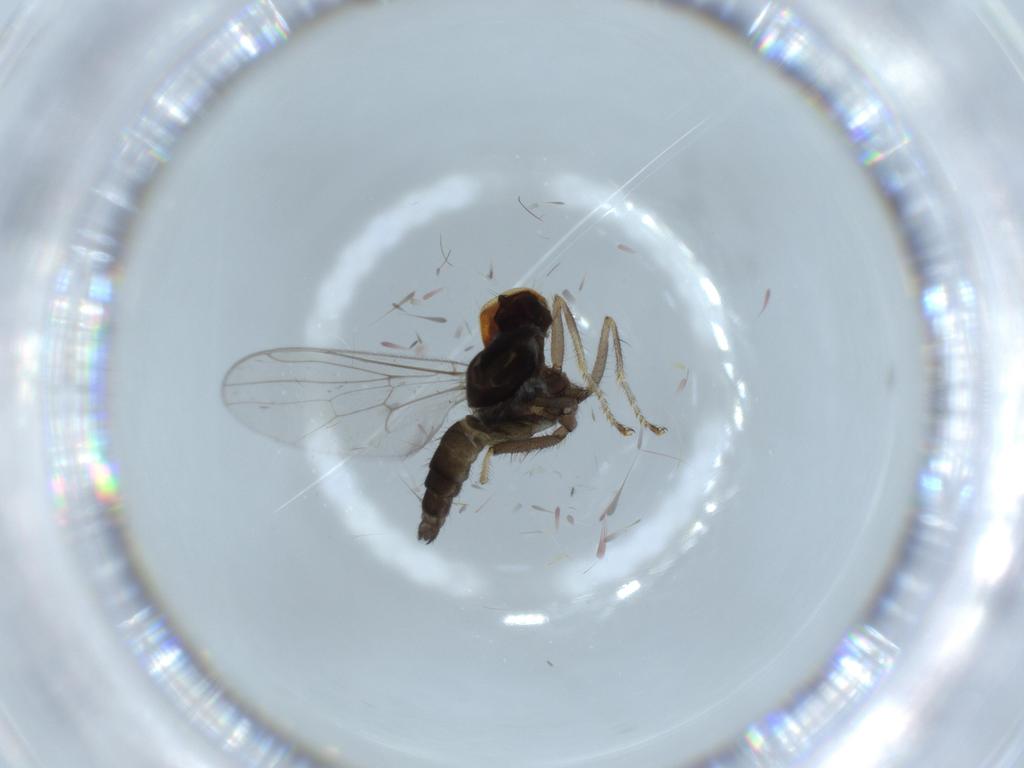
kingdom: Animalia
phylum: Arthropoda
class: Insecta
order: Diptera
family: Hybotidae
